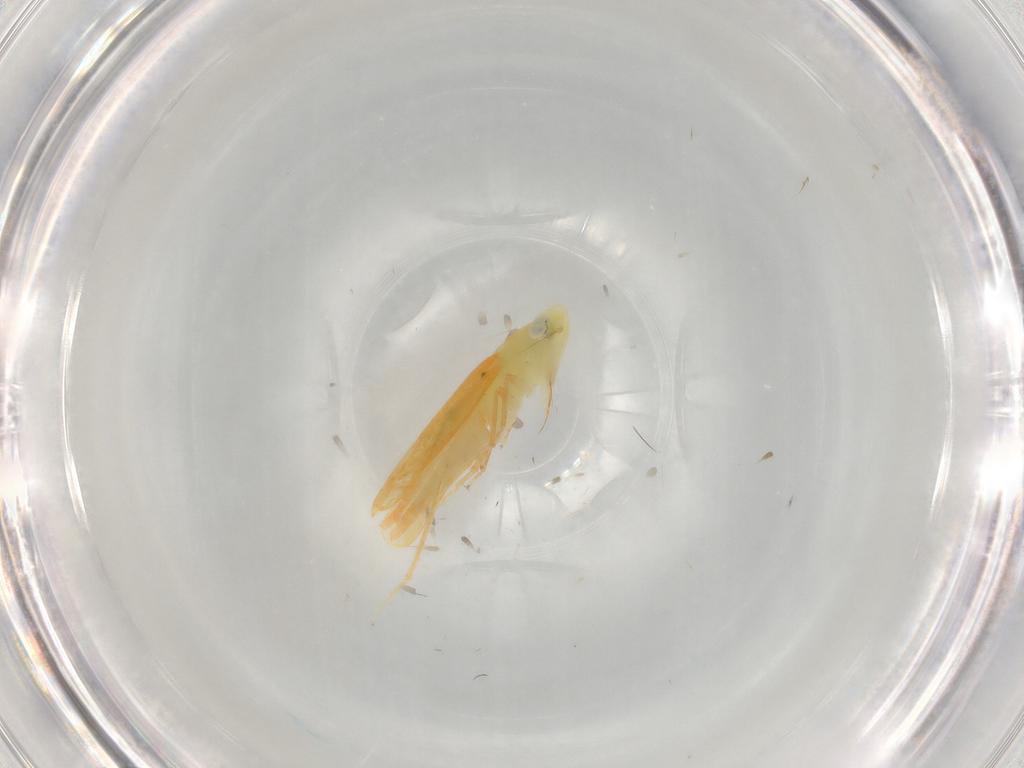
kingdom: Animalia
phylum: Arthropoda
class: Insecta
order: Hemiptera
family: Cicadellidae
